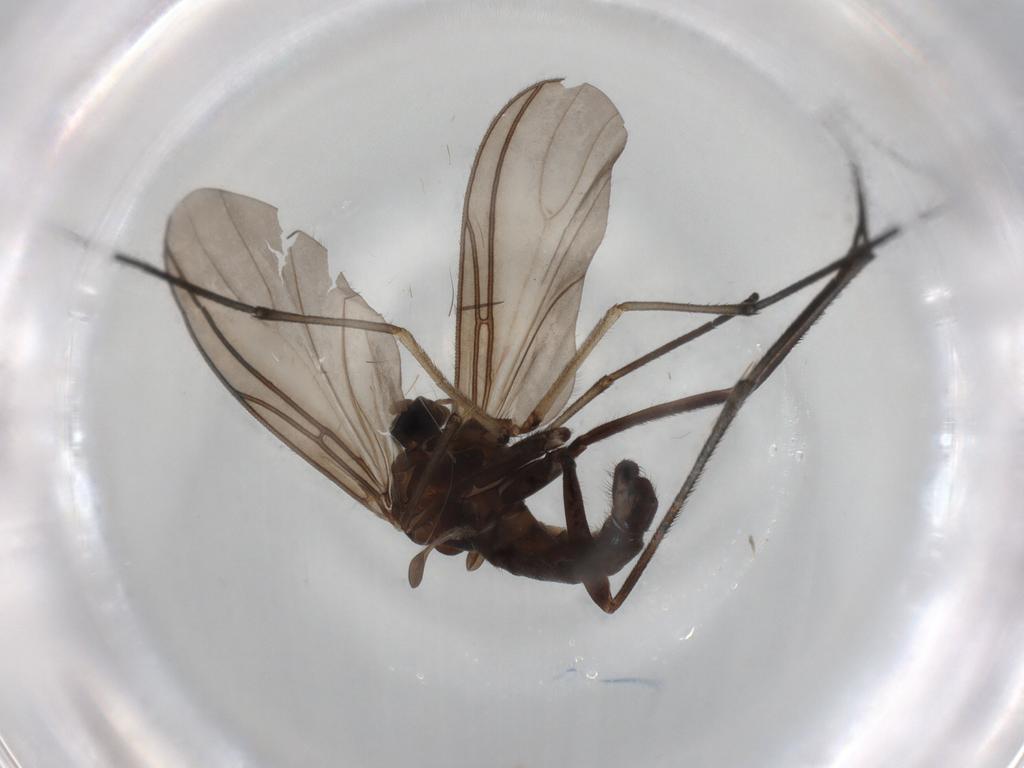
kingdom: Animalia
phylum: Arthropoda
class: Insecta
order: Diptera
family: Sciaridae
